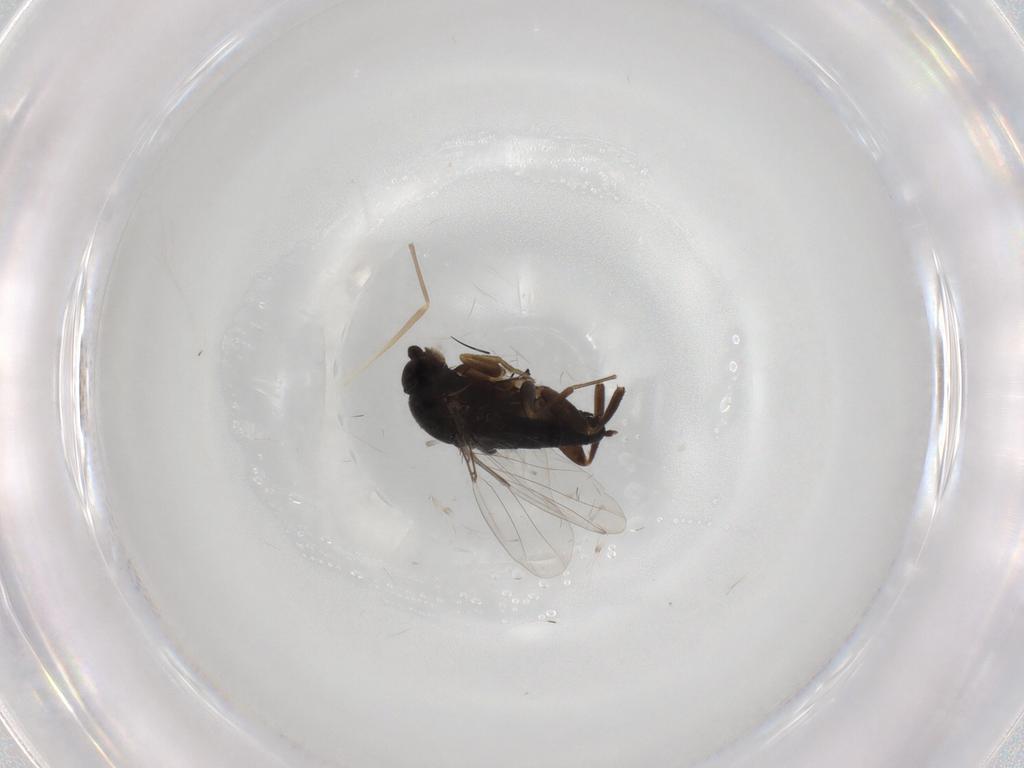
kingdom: Animalia
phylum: Arthropoda
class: Insecta
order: Diptera
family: Phoridae
